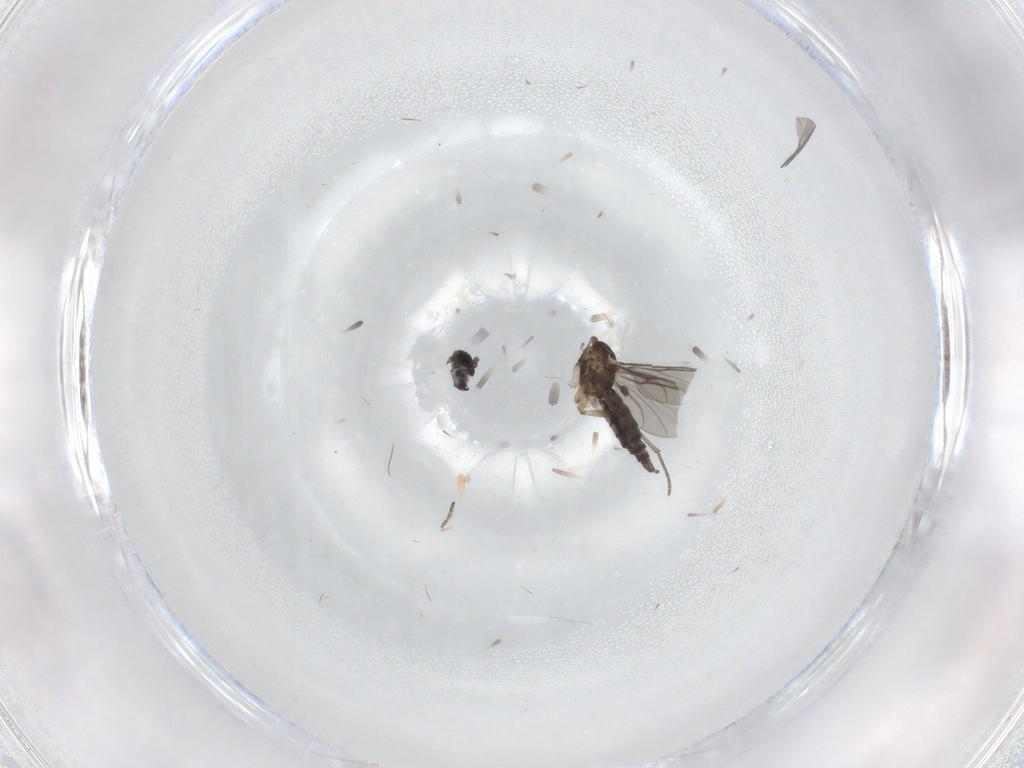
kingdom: Animalia
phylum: Arthropoda
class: Insecta
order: Diptera
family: Sciaridae
